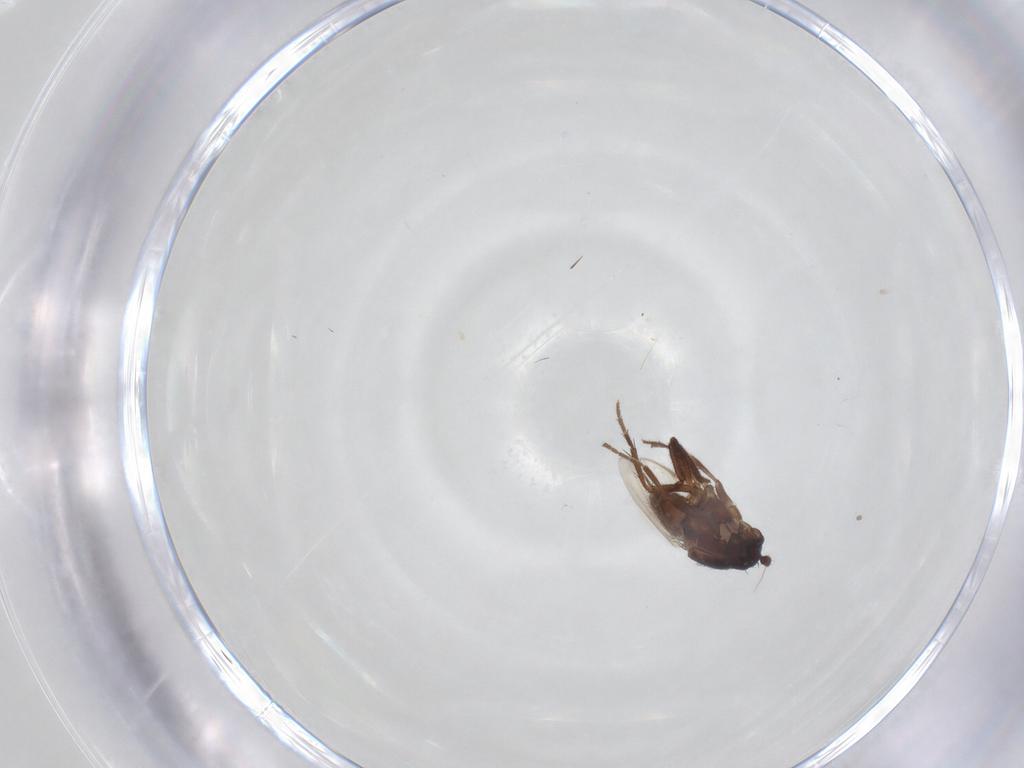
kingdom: Animalia
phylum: Arthropoda
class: Insecta
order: Diptera
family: Sphaeroceridae
